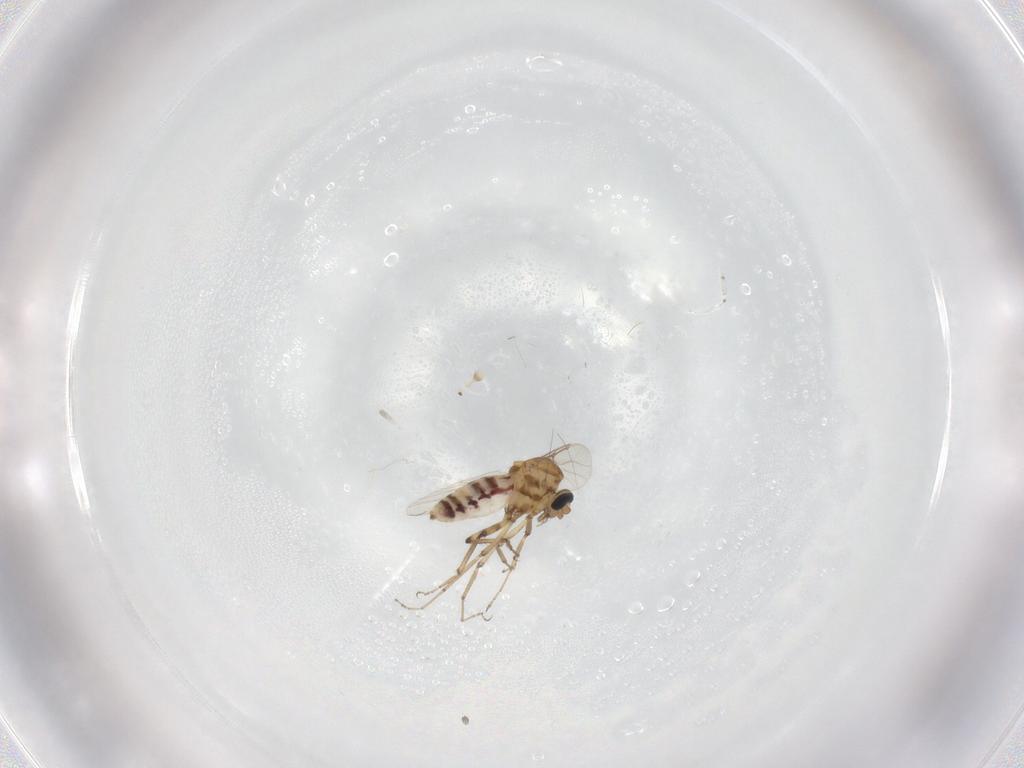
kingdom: Animalia
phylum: Arthropoda
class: Insecta
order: Diptera
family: Ceratopogonidae
